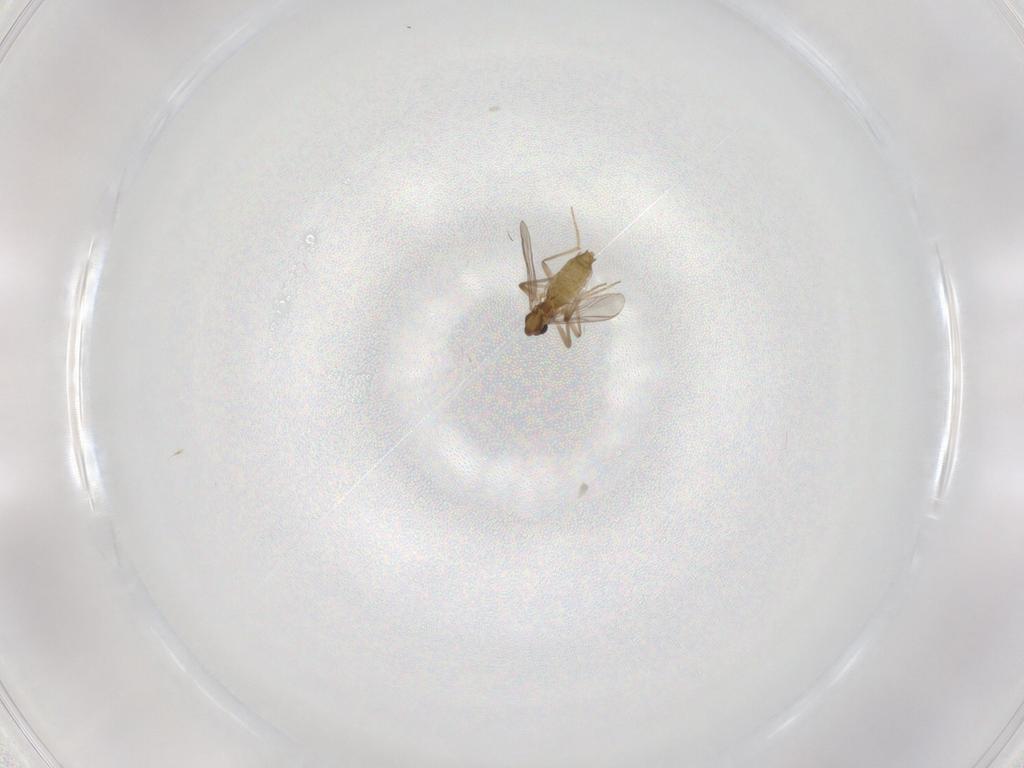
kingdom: Animalia
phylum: Arthropoda
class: Insecta
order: Diptera
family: Chironomidae
